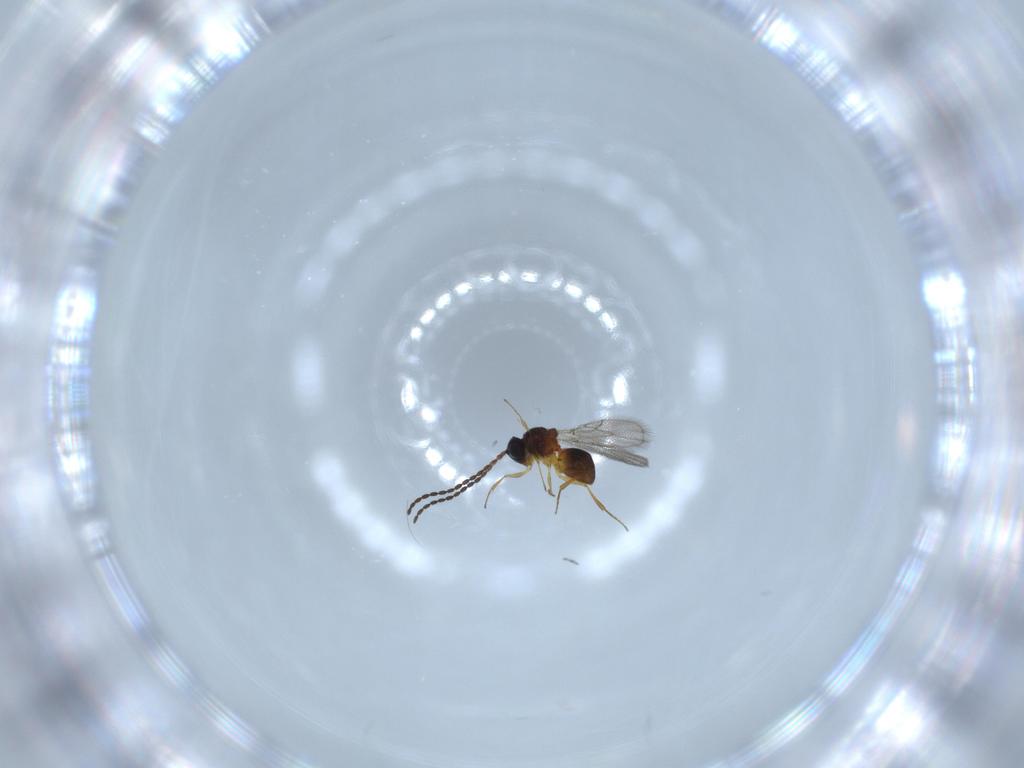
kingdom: Animalia
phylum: Arthropoda
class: Insecta
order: Hymenoptera
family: Figitidae
